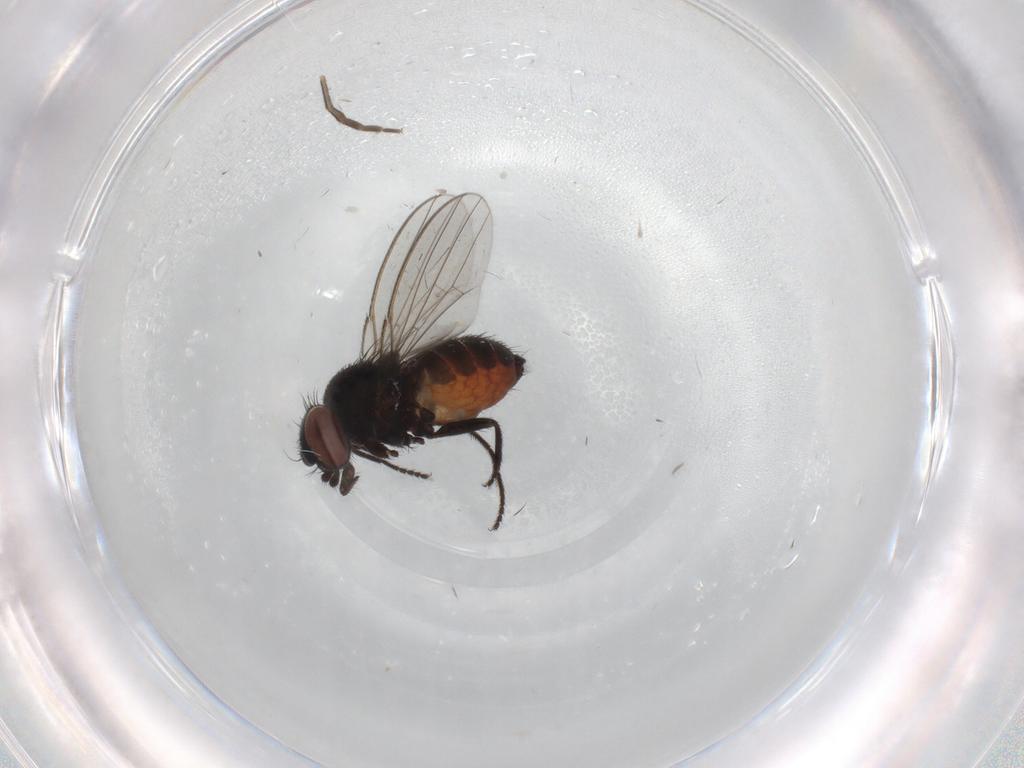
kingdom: Animalia
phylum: Arthropoda
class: Insecta
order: Diptera
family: Milichiidae
